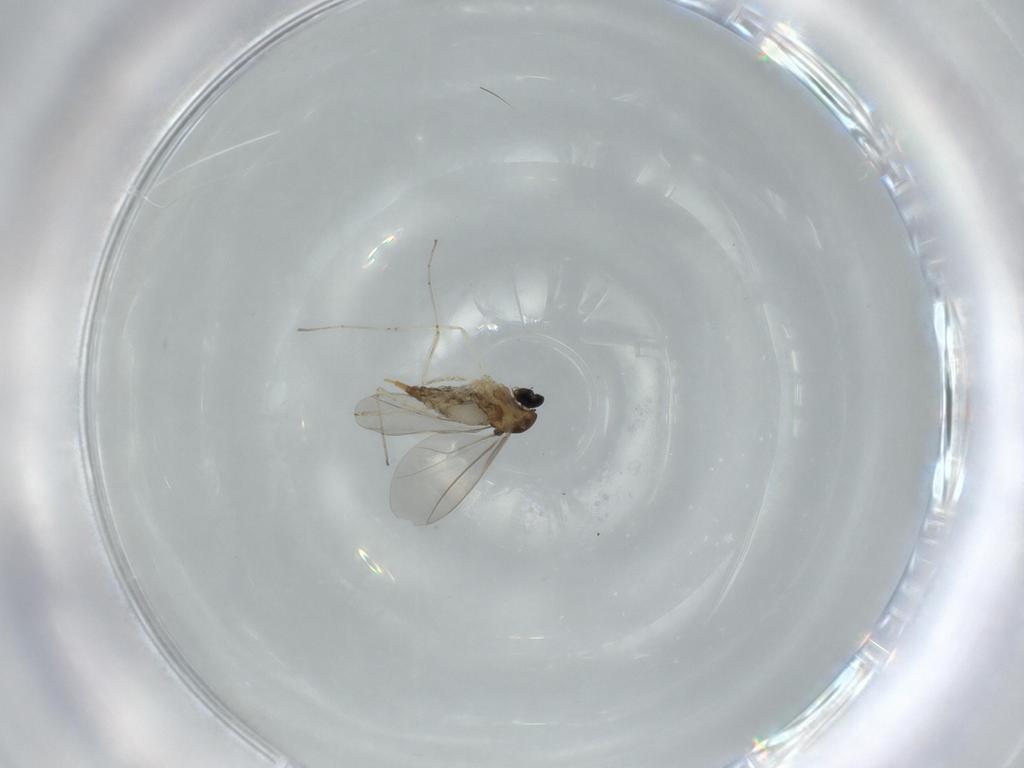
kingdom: Animalia
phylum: Arthropoda
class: Insecta
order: Diptera
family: Cecidomyiidae
